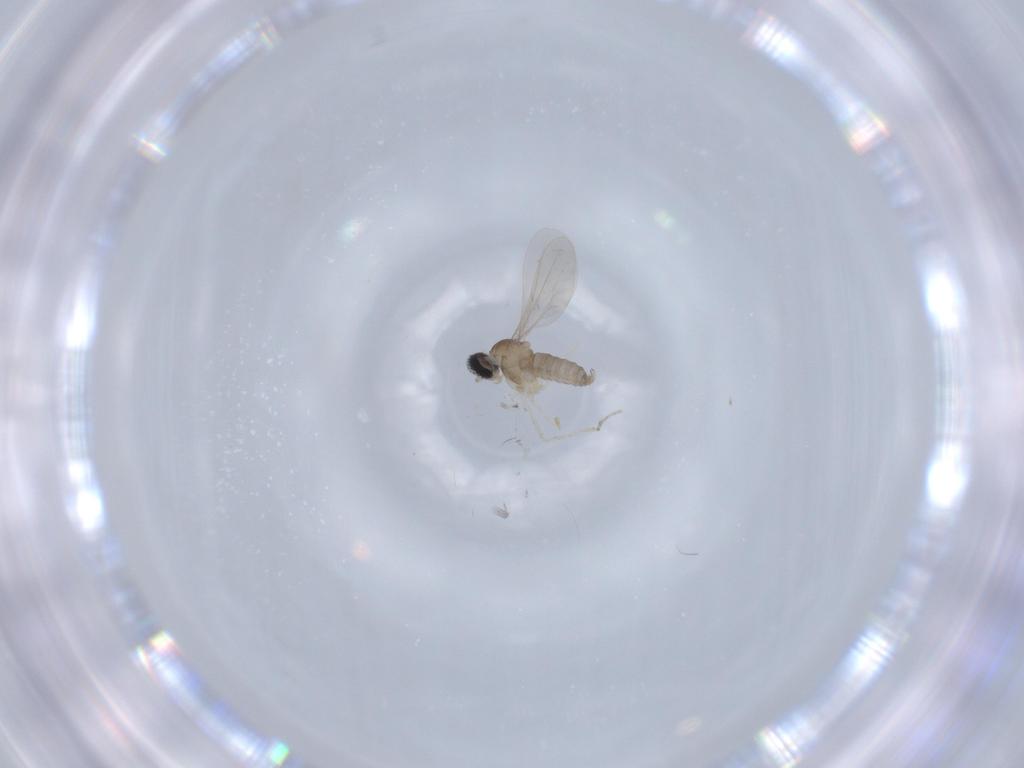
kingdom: Animalia
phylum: Arthropoda
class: Insecta
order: Diptera
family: Cecidomyiidae
